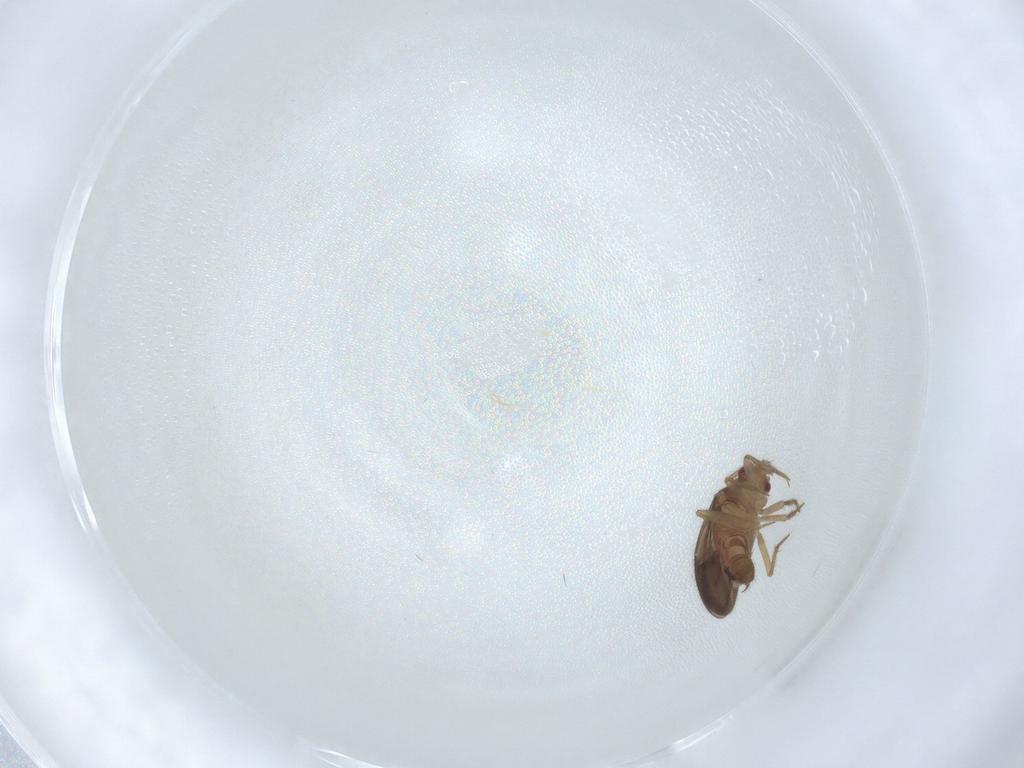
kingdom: Animalia
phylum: Arthropoda
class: Insecta
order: Hemiptera
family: Ceratocombidae
